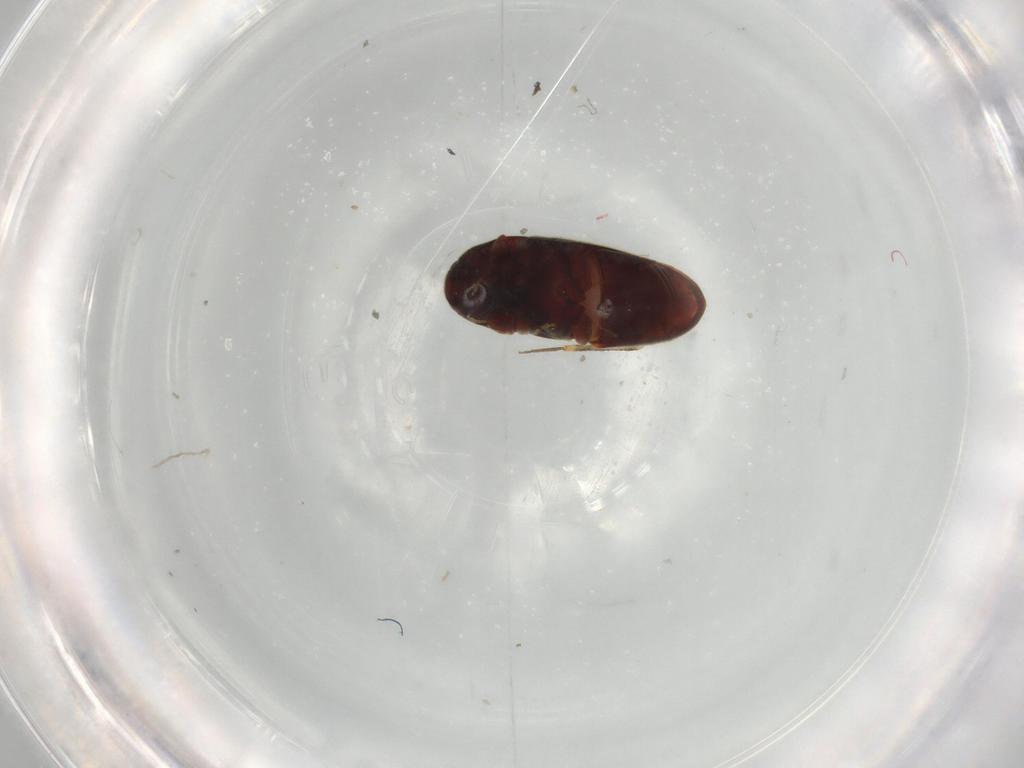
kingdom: Animalia
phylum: Arthropoda
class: Insecta
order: Coleoptera
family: Throscidae
